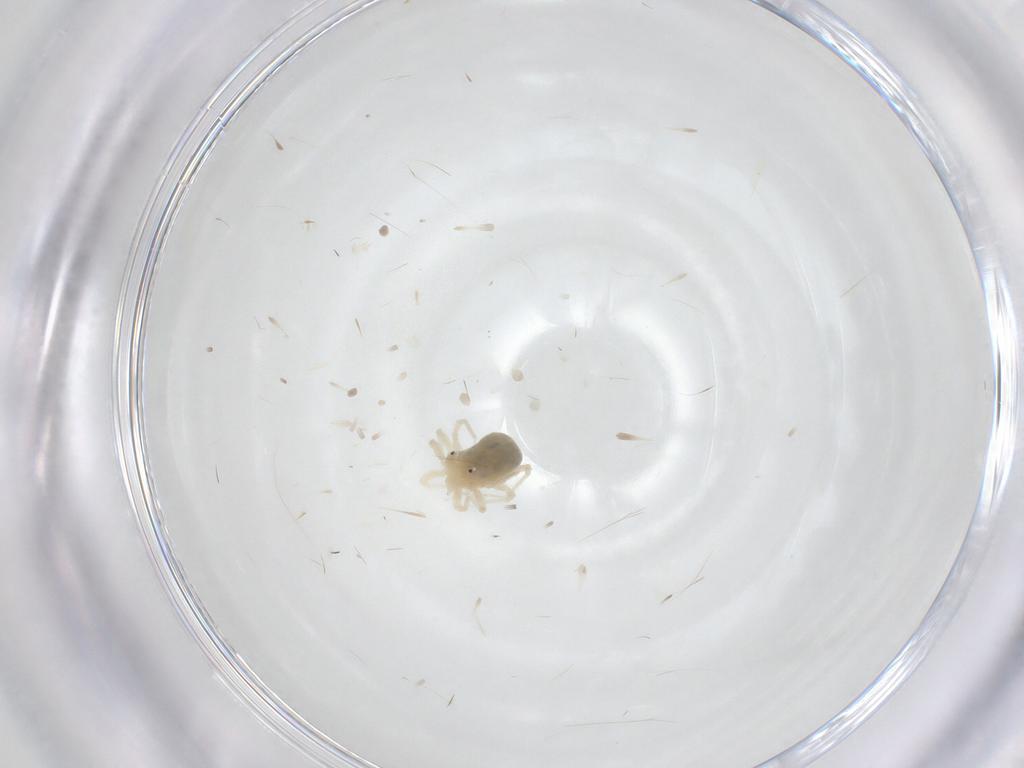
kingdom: Animalia
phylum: Arthropoda
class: Arachnida
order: Trombidiformes
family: Anystidae
